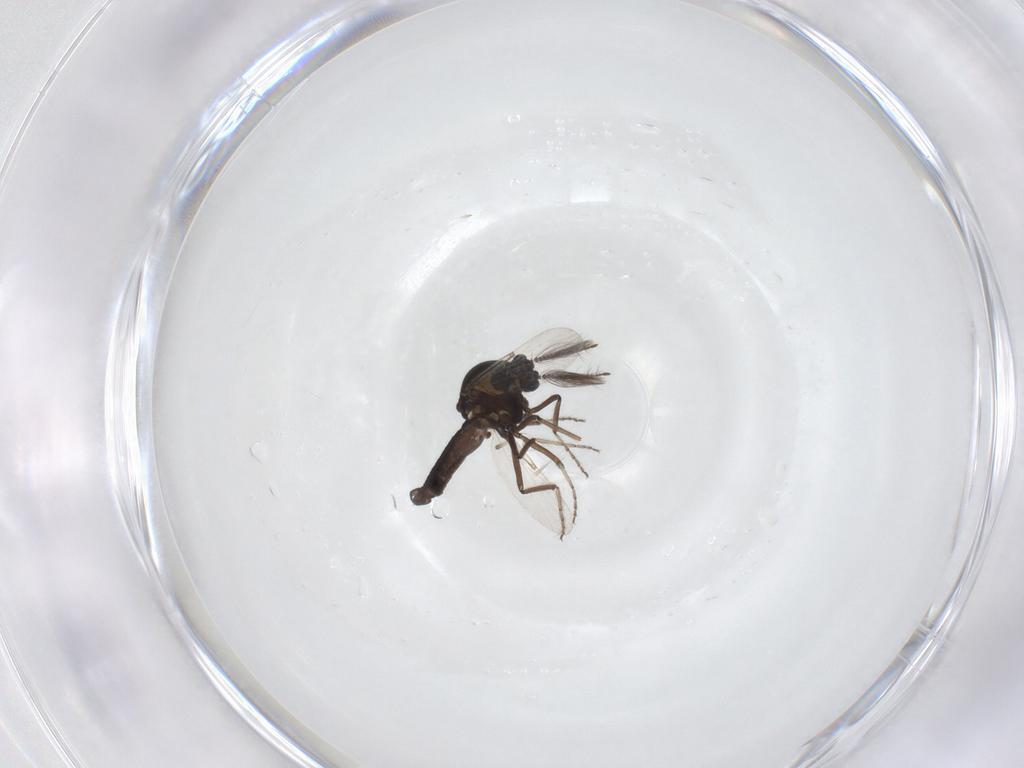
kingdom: Animalia
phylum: Arthropoda
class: Insecta
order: Diptera
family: Ceratopogonidae
